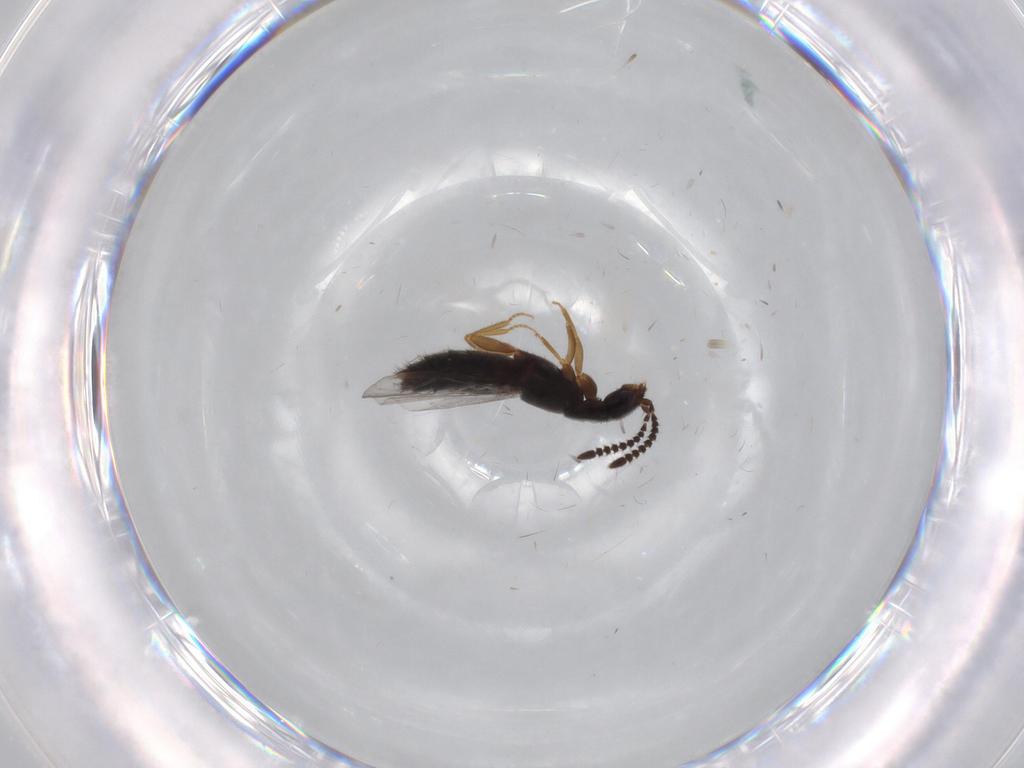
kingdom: Animalia
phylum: Arthropoda
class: Insecta
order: Coleoptera
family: Staphylinidae
